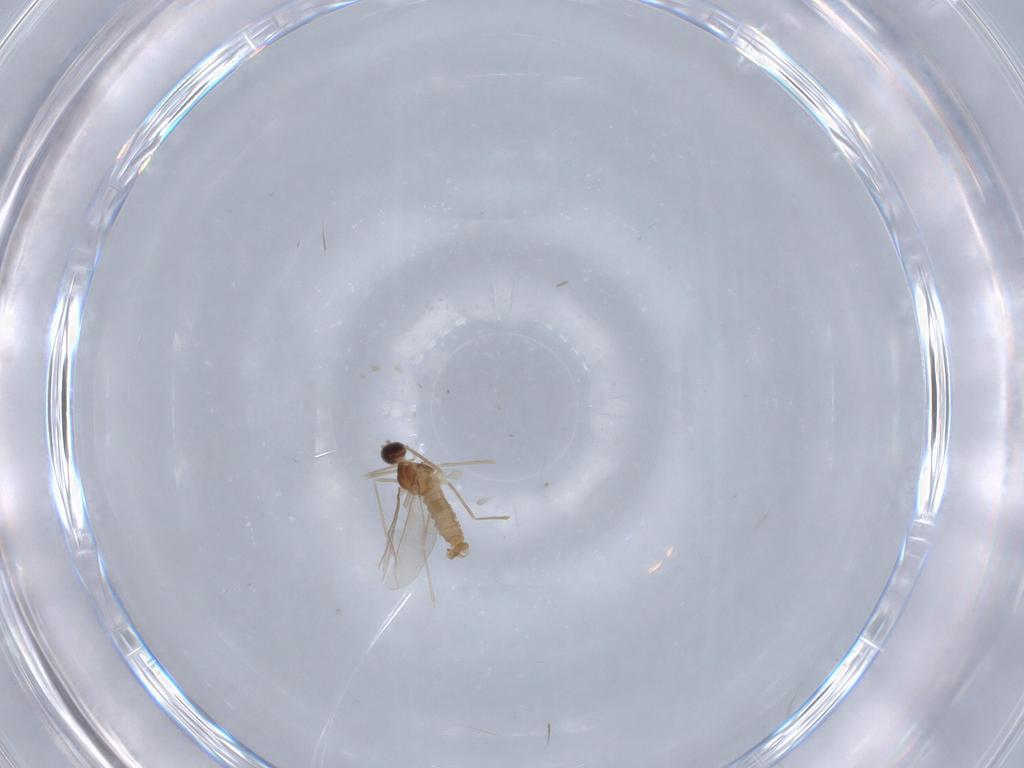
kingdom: Animalia
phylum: Arthropoda
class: Insecta
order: Diptera
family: Cecidomyiidae
